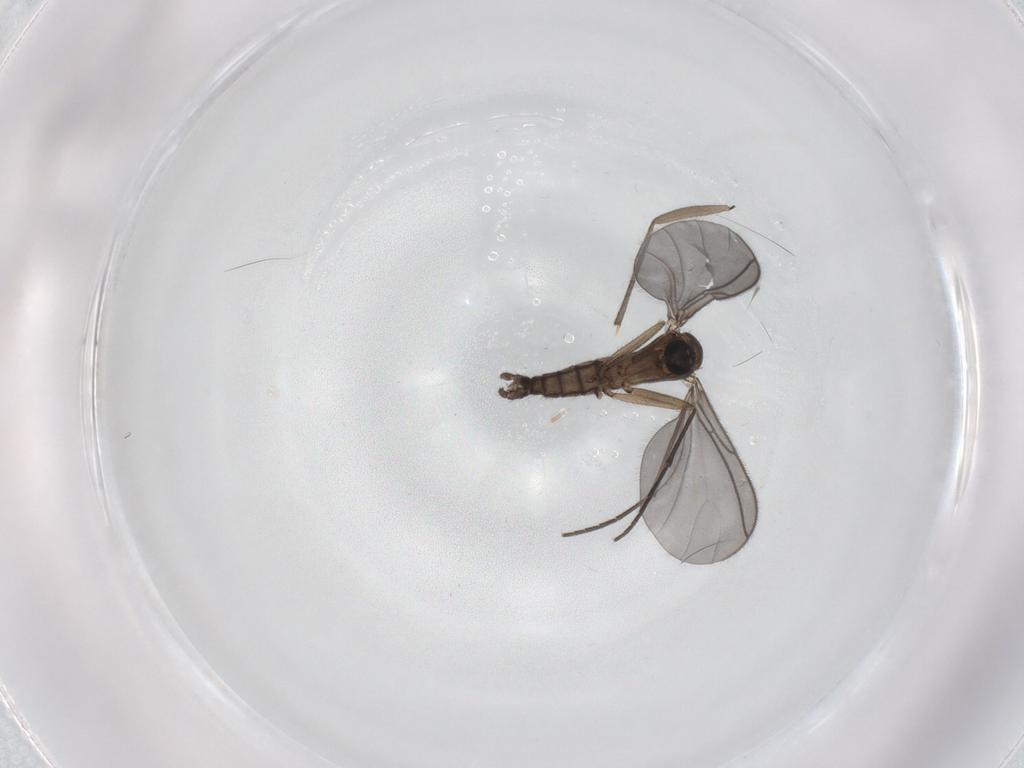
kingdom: Animalia
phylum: Arthropoda
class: Insecta
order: Diptera
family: Sciaridae
